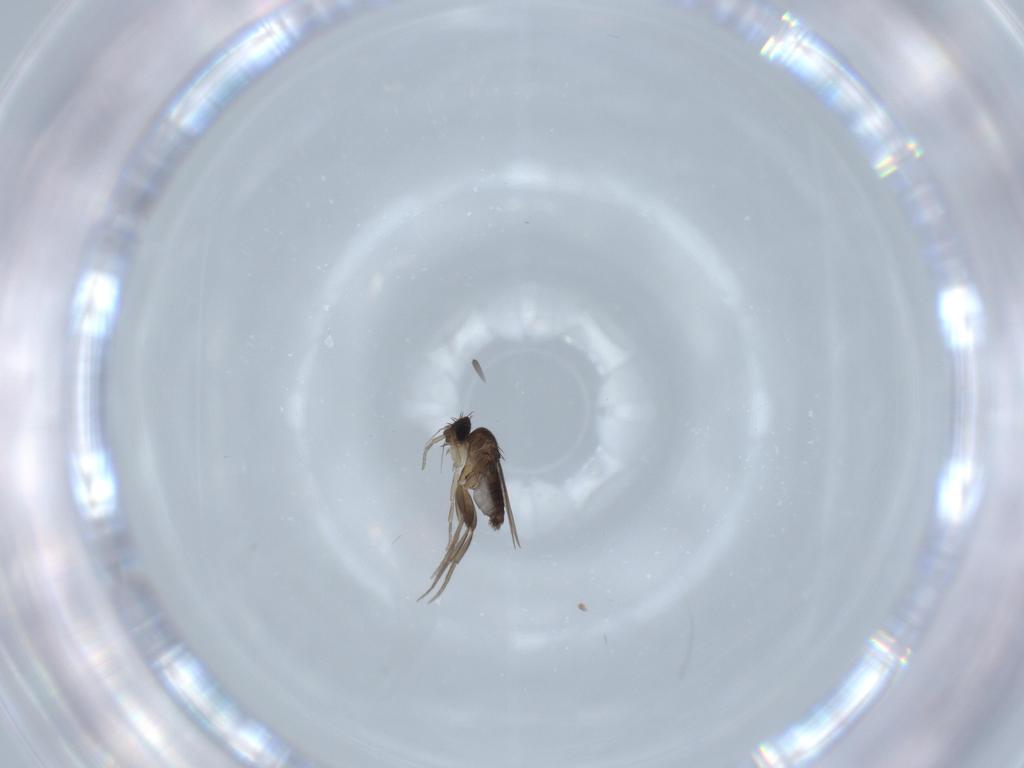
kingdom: Animalia
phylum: Arthropoda
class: Insecta
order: Diptera
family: Phoridae
